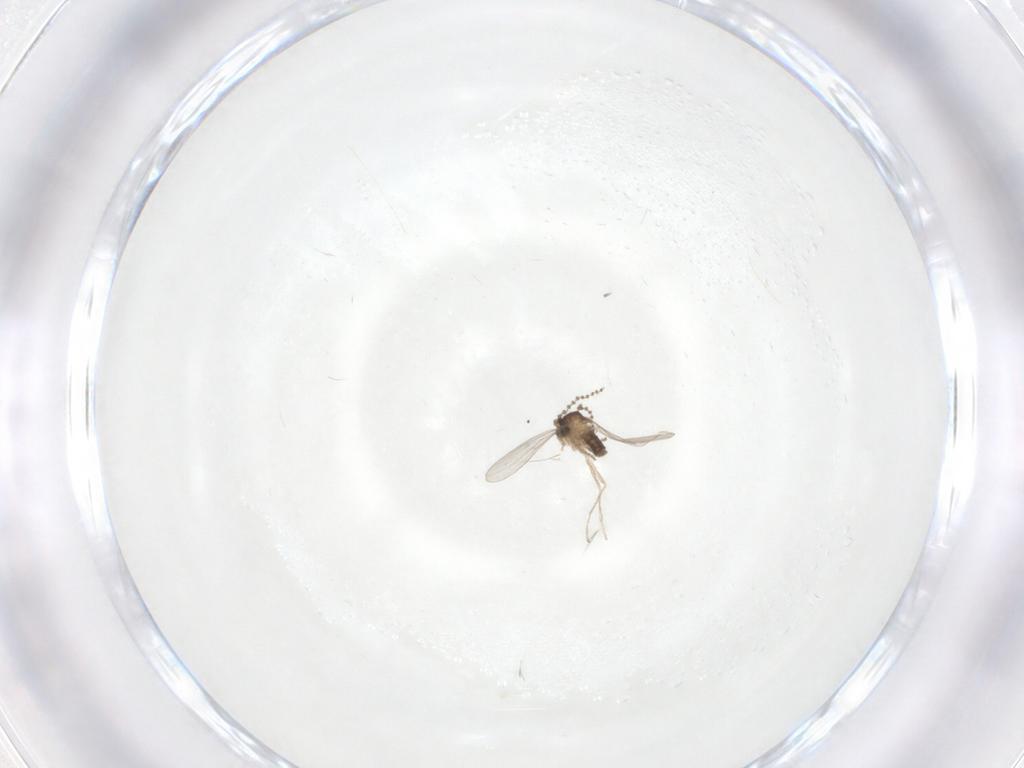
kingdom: Animalia
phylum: Arthropoda
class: Insecta
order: Diptera
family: Cecidomyiidae
